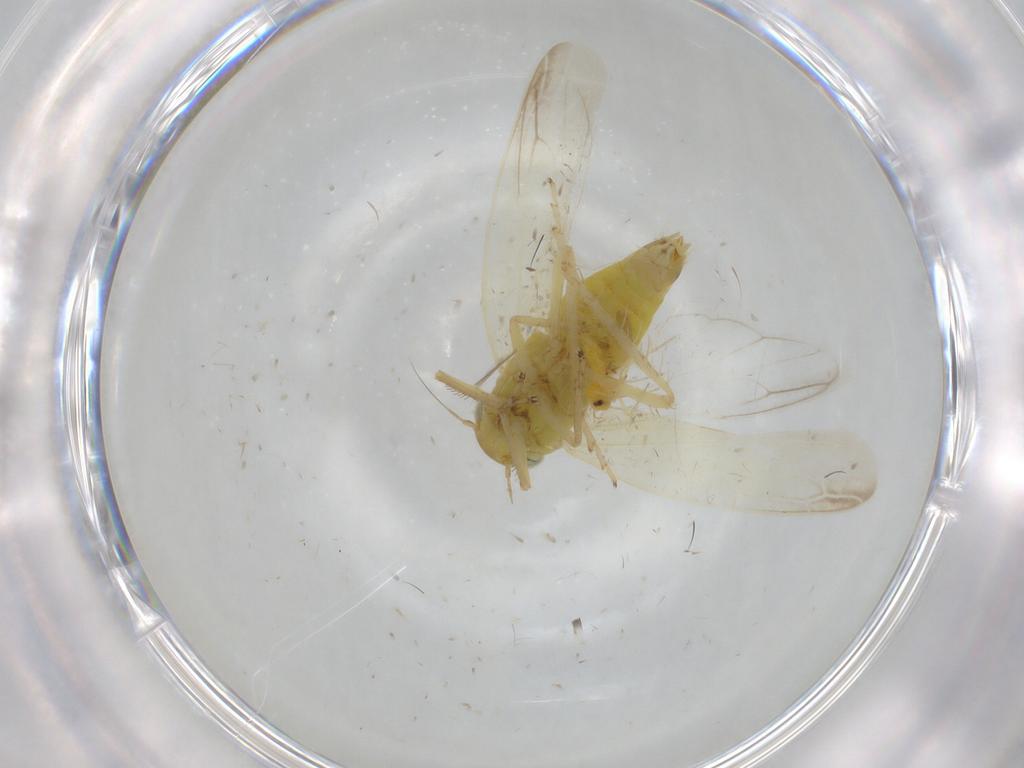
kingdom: Animalia
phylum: Arthropoda
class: Insecta
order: Hemiptera
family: Cicadellidae
